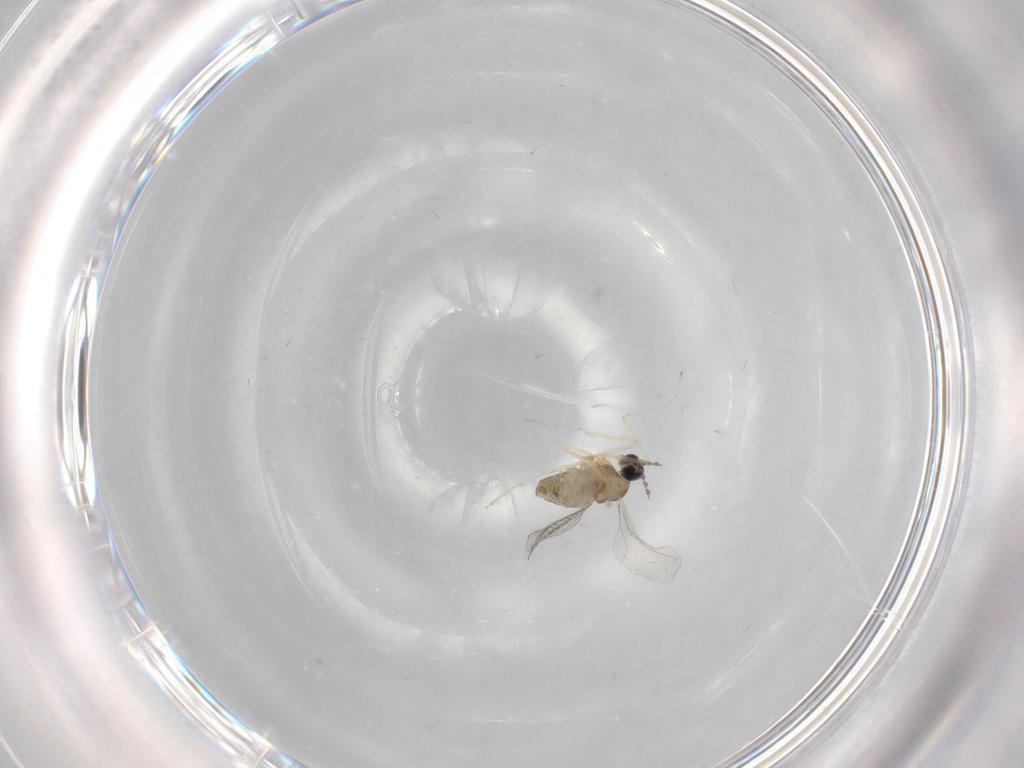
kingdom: Animalia
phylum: Arthropoda
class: Insecta
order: Diptera
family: Cecidomyiidae
